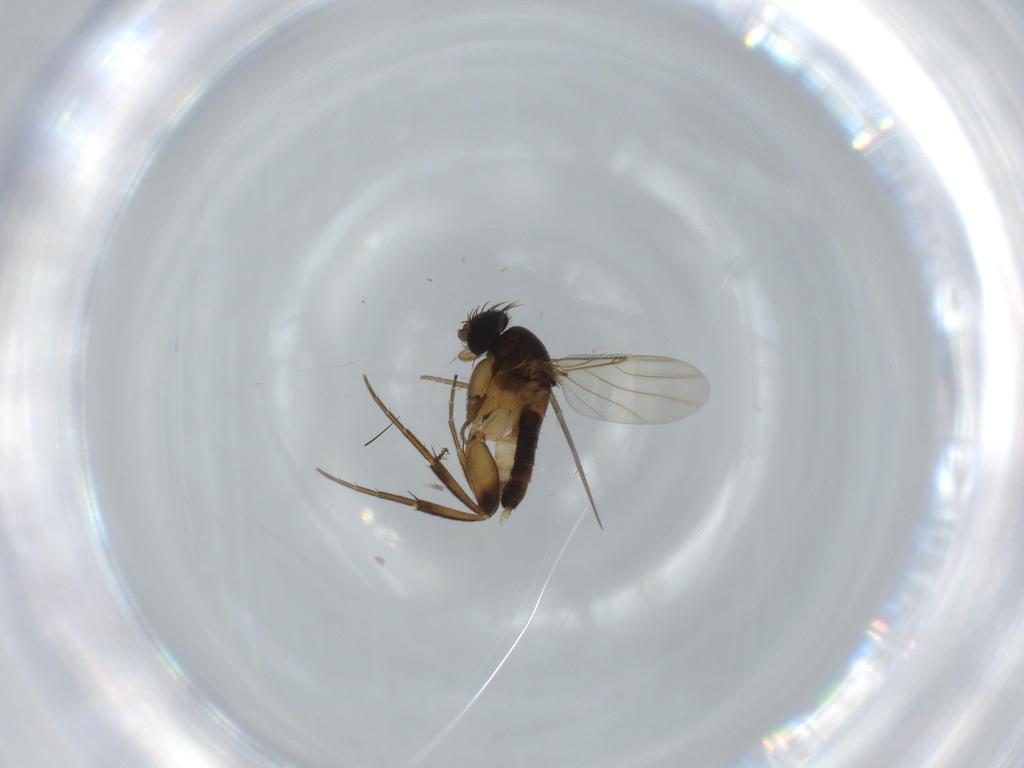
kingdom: Animalia
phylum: Arthropoda
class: Insecta
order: Diptera
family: Phoridae
